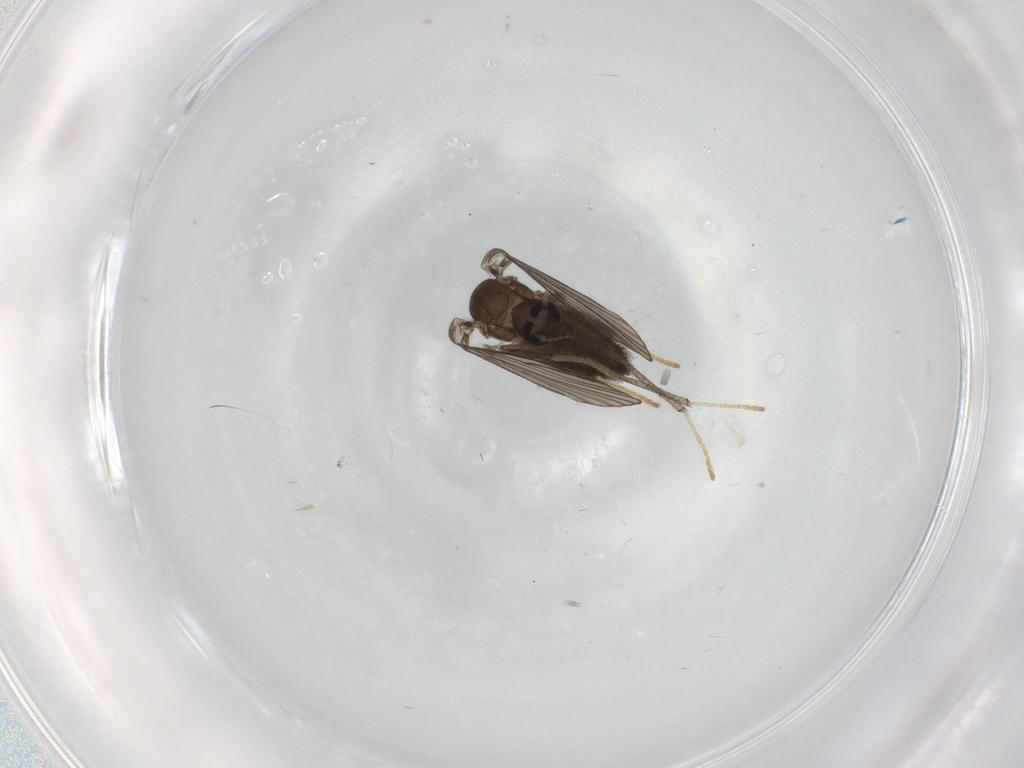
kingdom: Animalia
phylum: Arthropoda
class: Insecta
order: Diptera
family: Psychodidae
